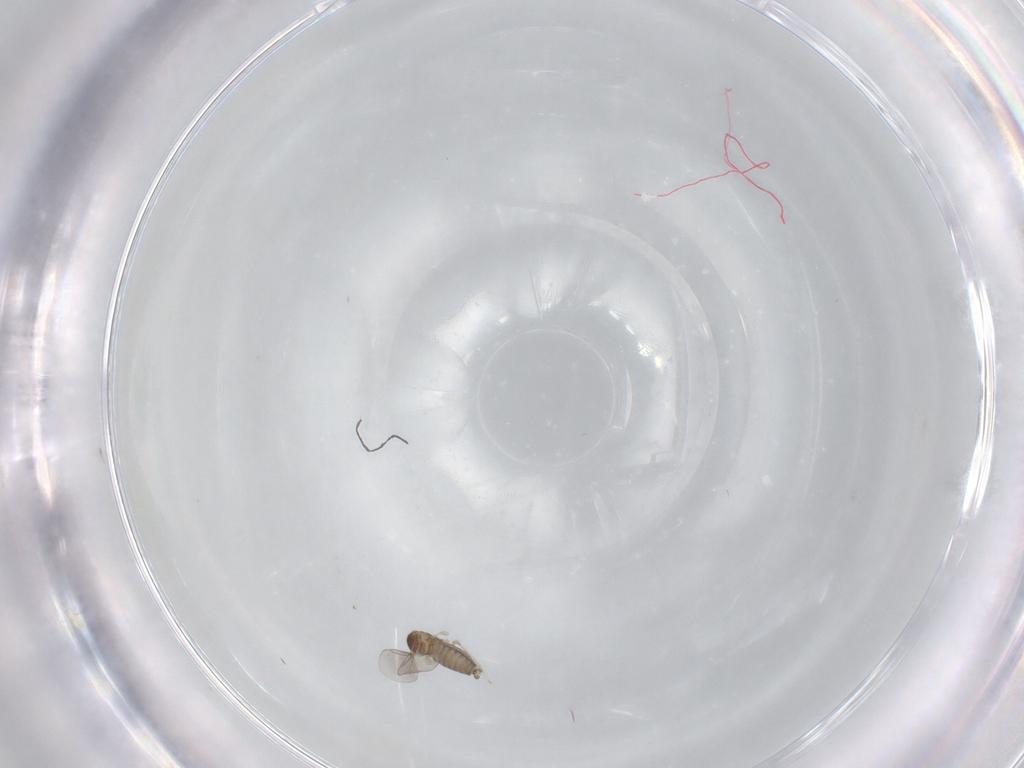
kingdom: Animalia
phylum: Arthropoda
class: Insecta
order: Diptera
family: Cecidomyiidae
